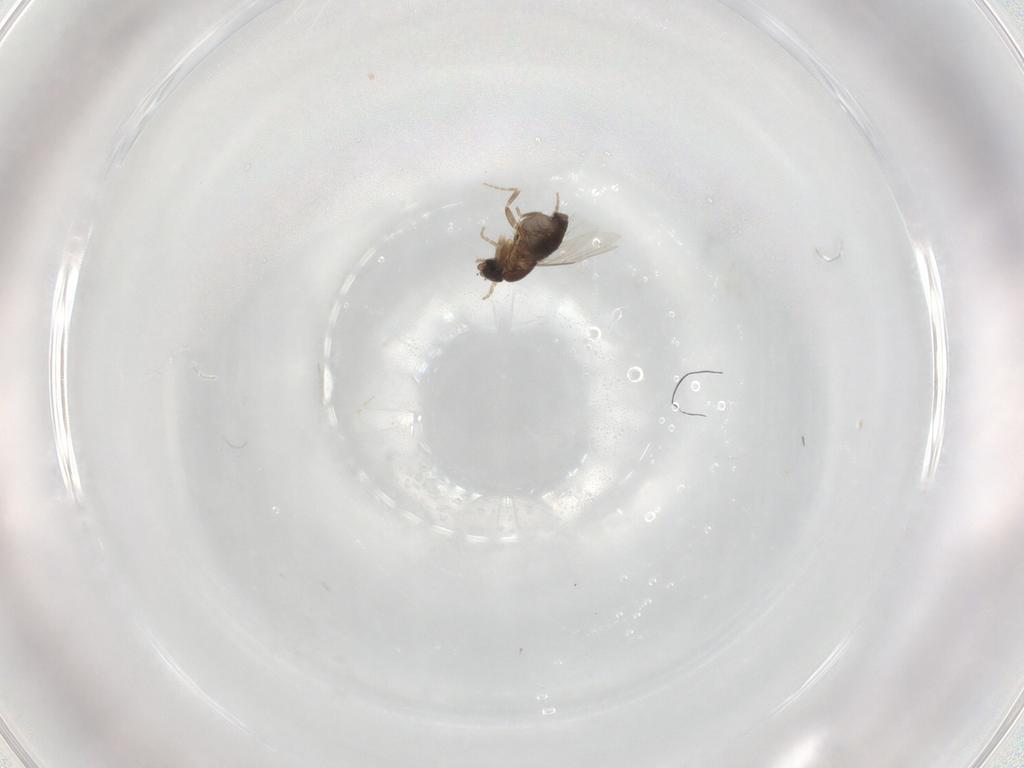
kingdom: Animalia
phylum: Arthropoda
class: Insecta
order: Diptera
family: Phoridae
